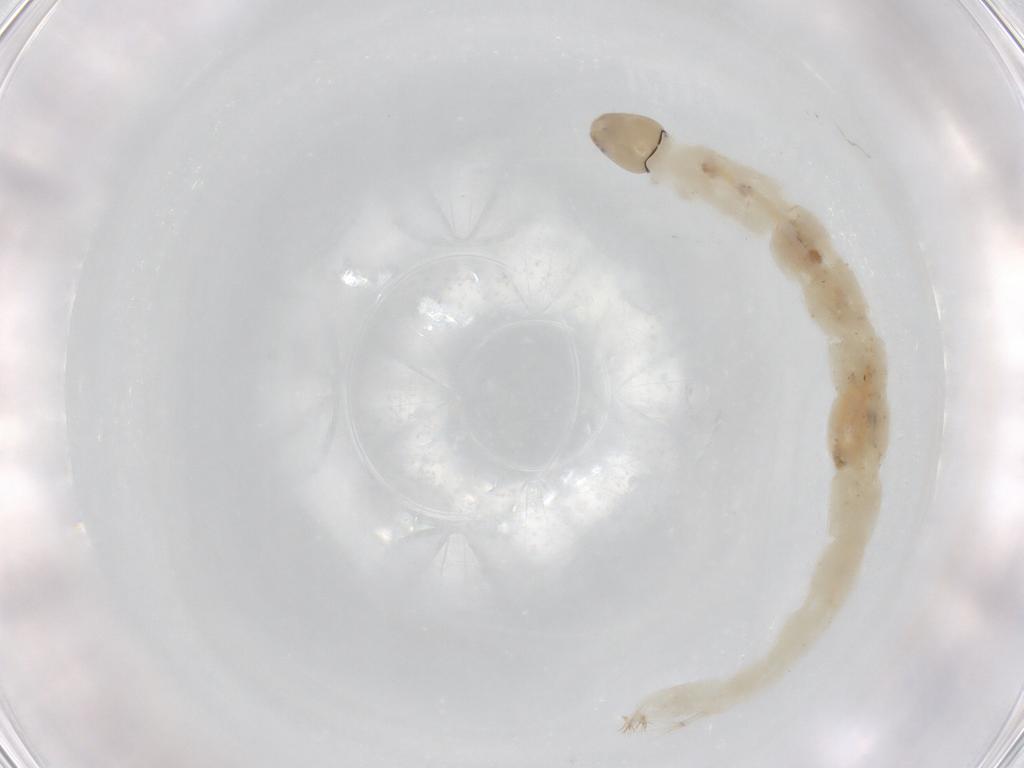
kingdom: Animalia
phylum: Arthropoda
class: Insecta
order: Diptera
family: Chironomidae
